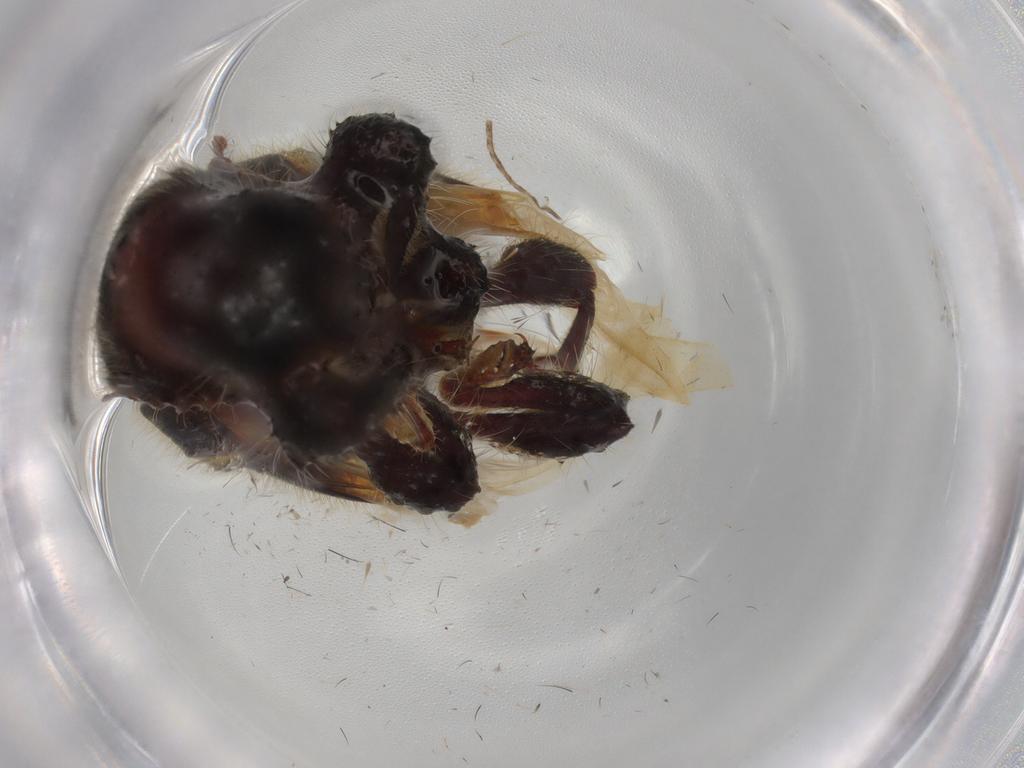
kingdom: Animalia
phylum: Arthropoda
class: Insecta
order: Coleoptera
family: Cleridae
